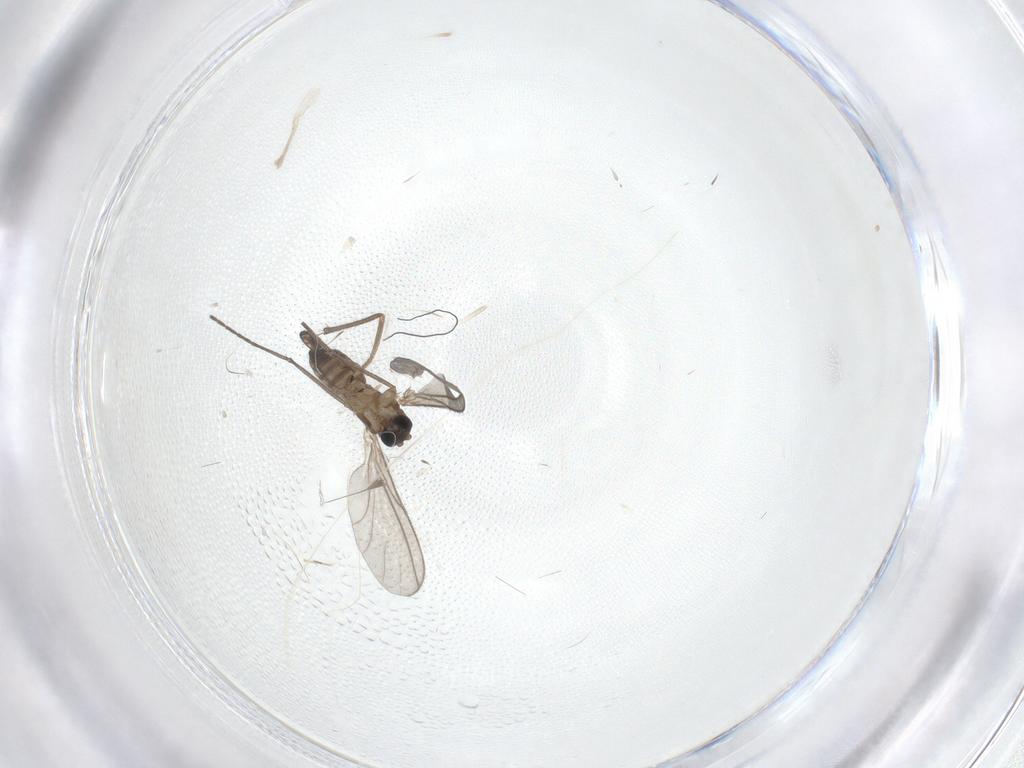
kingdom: Animalia
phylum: Arthropoda
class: Insecta
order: Diptera
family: Sciaridae
